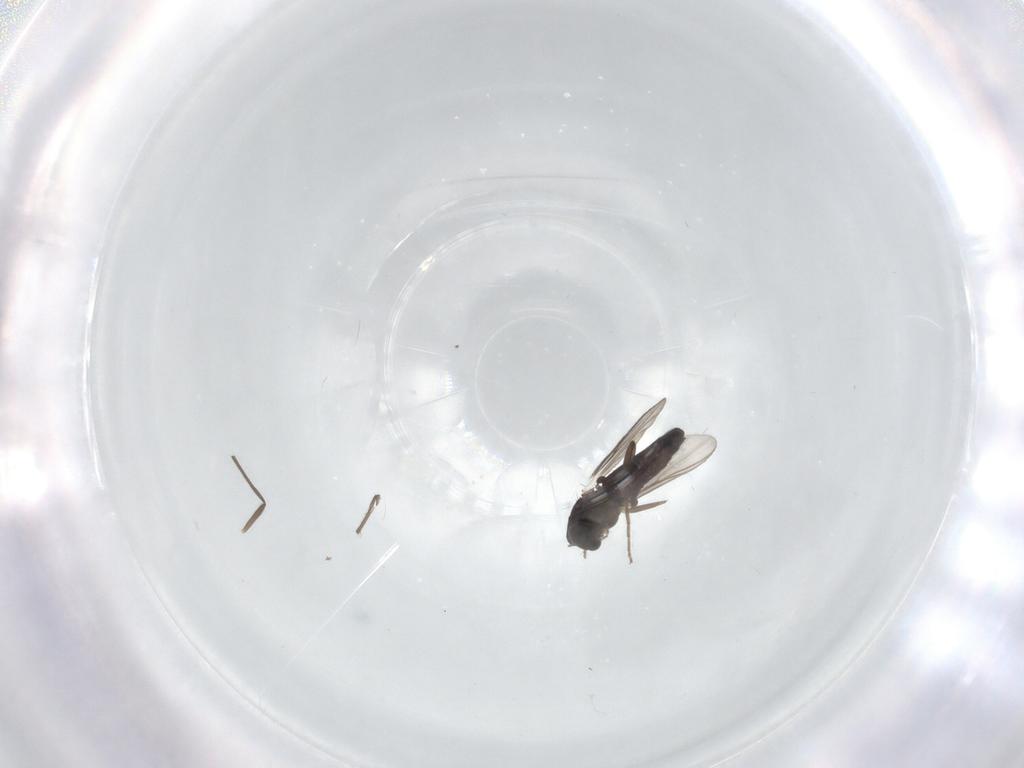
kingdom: Animalia
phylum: Arthropoda
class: Insecta
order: Diptera
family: Chironomidae
